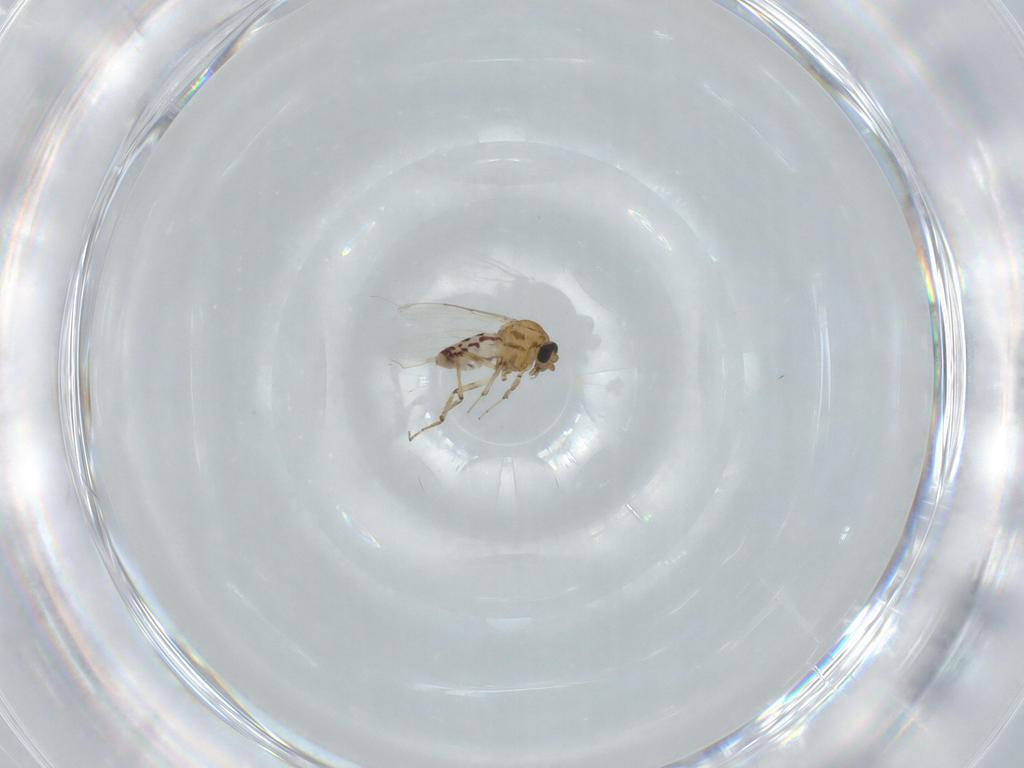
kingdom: Animalia
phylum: Arthropoda
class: Insecta
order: Diptera
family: Ceratopogonidae
